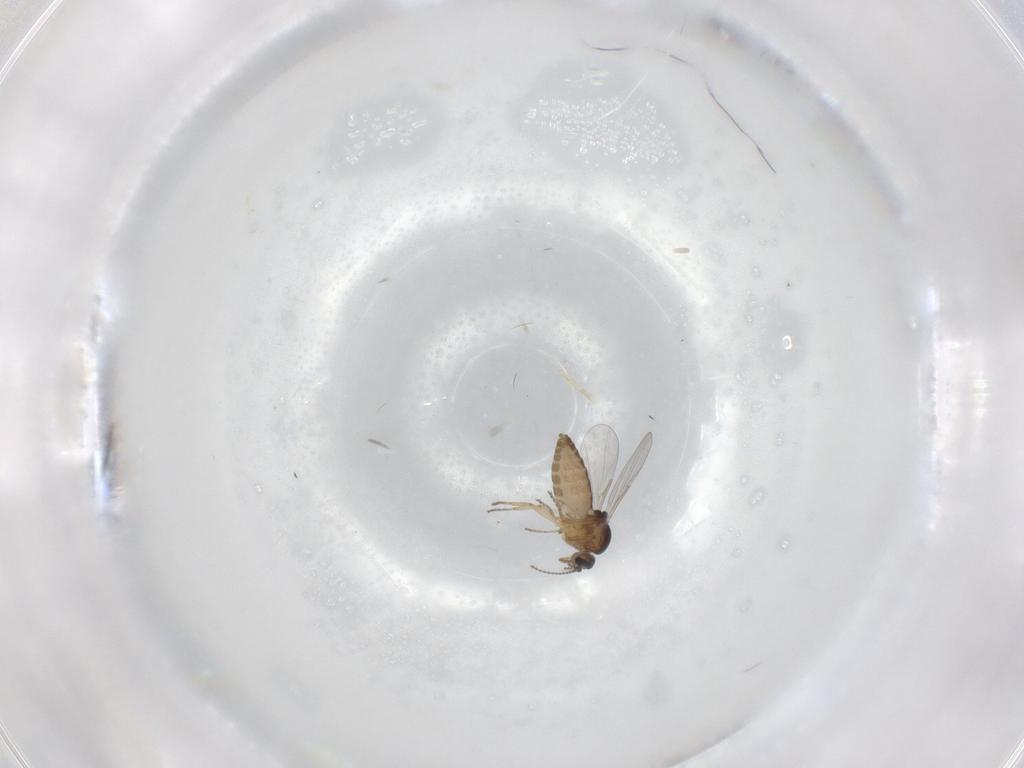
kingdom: Animalia
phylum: Arthropoda
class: Insecta
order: Diptera
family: Ceratopogonidae
